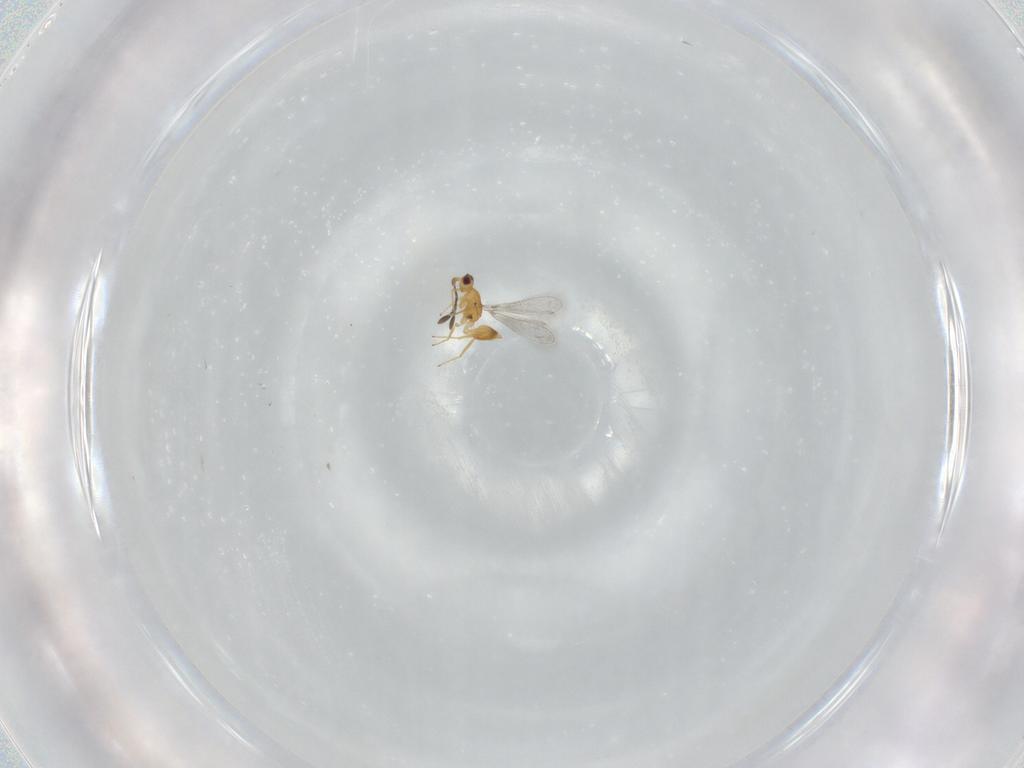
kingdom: Animalia
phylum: Arthropoda
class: Insecta
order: Hymenoptera
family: Mymaridae
